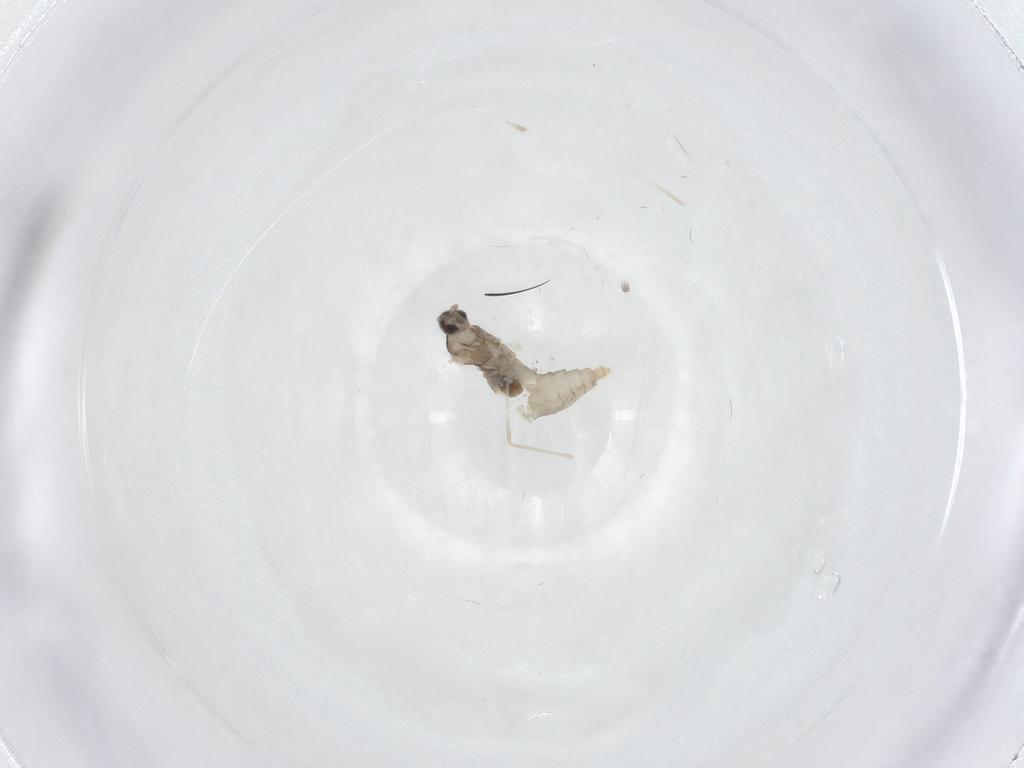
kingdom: Animalia
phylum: Arthropoda
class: Insecta
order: Diptera
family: Cecidomyiidae
